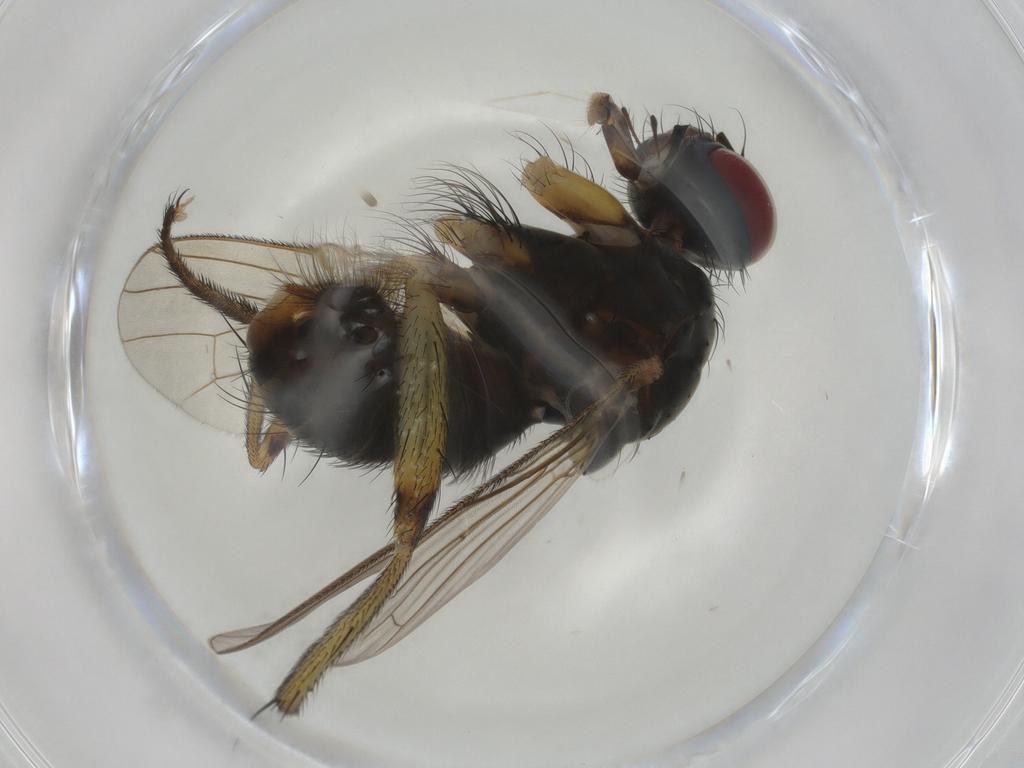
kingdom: Animalia
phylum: Arthropoda
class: Insecta
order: Diptera
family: Muscidae
